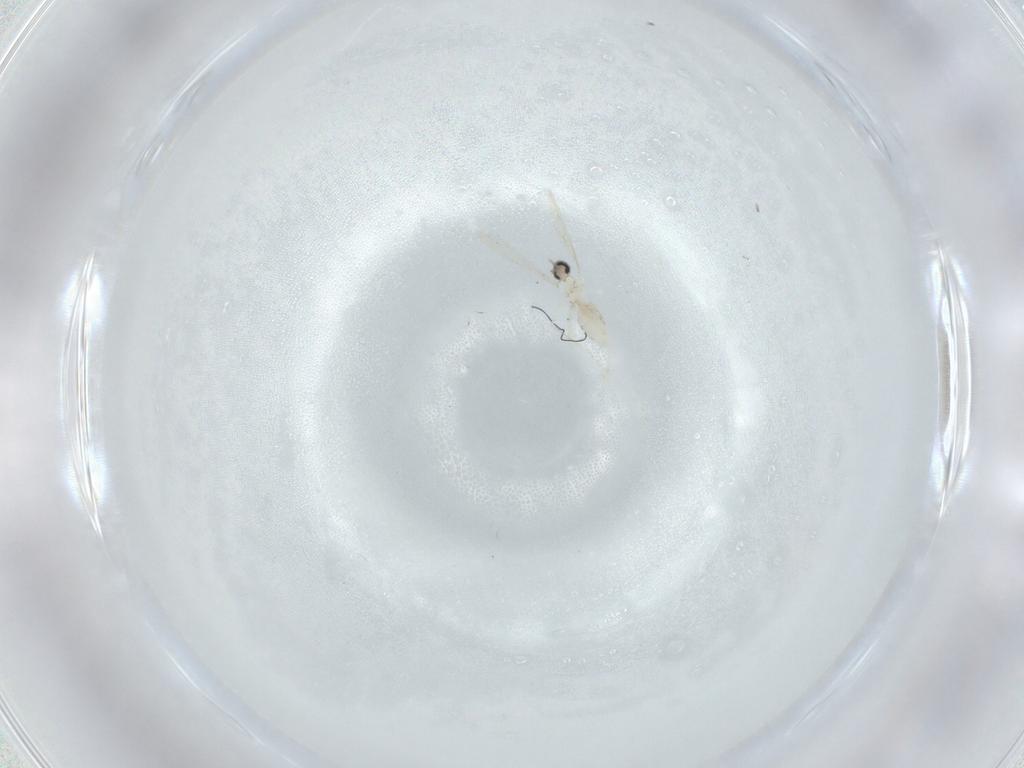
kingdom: Animalia
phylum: Arthropoda
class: Insecta
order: Diptera
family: Cecidomyiidae
